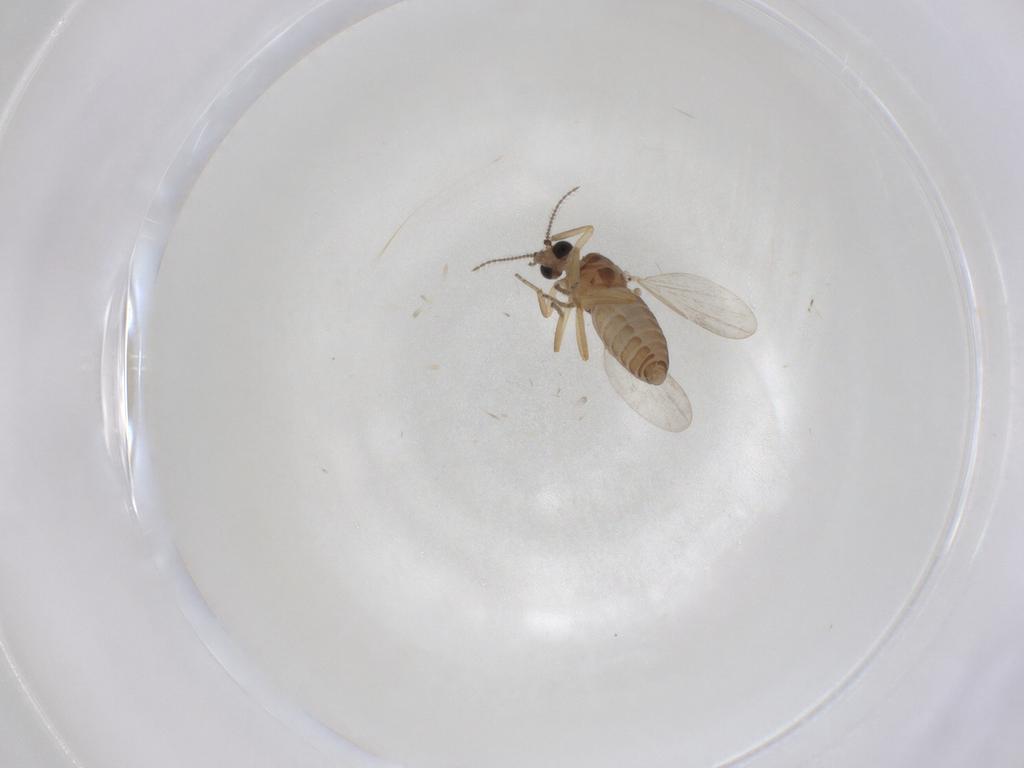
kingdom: Animalia
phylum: Arthropoda
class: Insecta
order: Diptera
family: Ceratopogonidae
